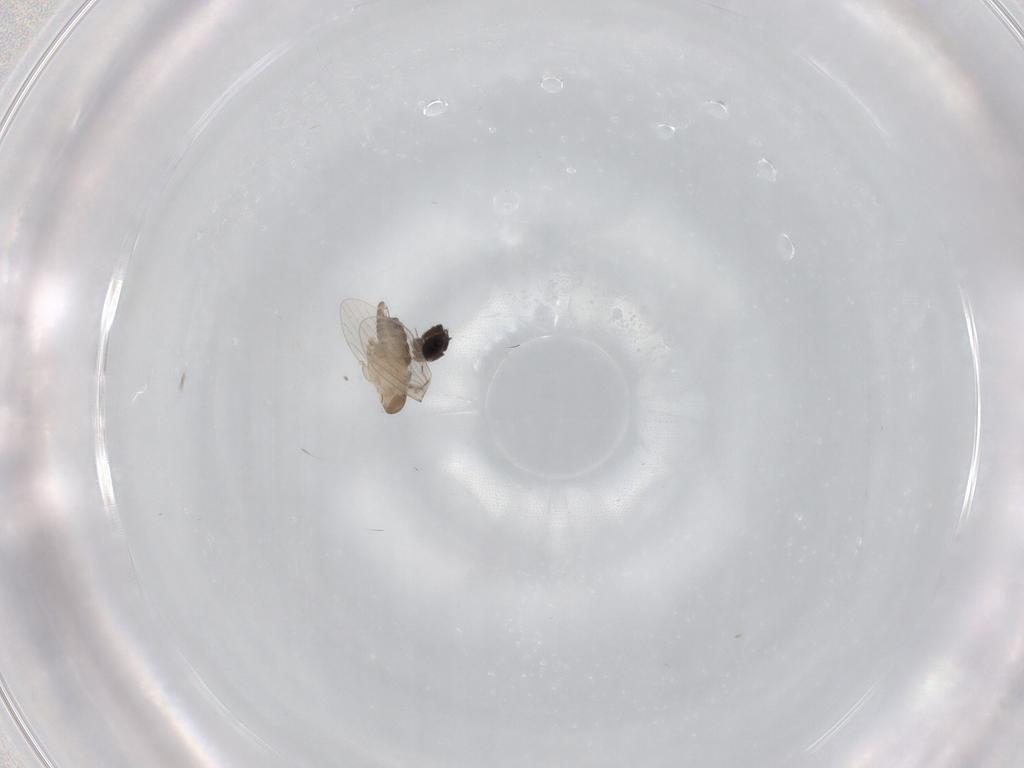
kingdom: Animalia
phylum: Arthropoda
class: Insecta
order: Diptera
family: Phoridae
